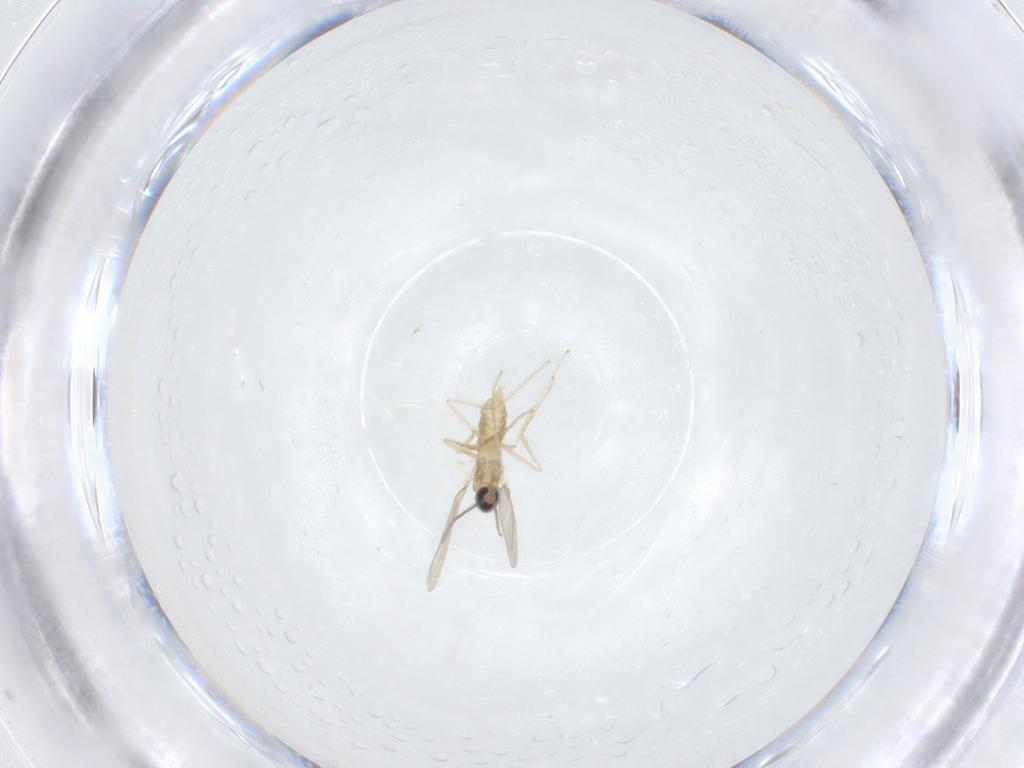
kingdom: Animalia
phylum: Arthropoda
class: Insecta
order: Diptera
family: Cecidomyiidae
